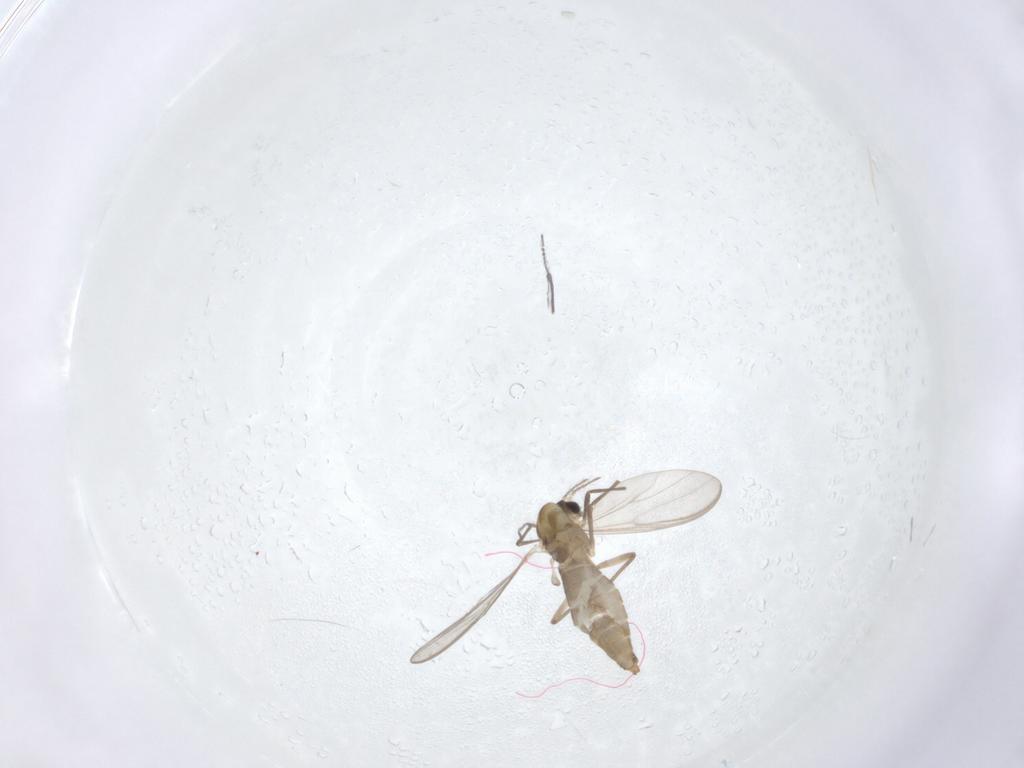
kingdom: Animalia
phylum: Arthropoda
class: Insecta
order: Diptera
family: Chironomidae
